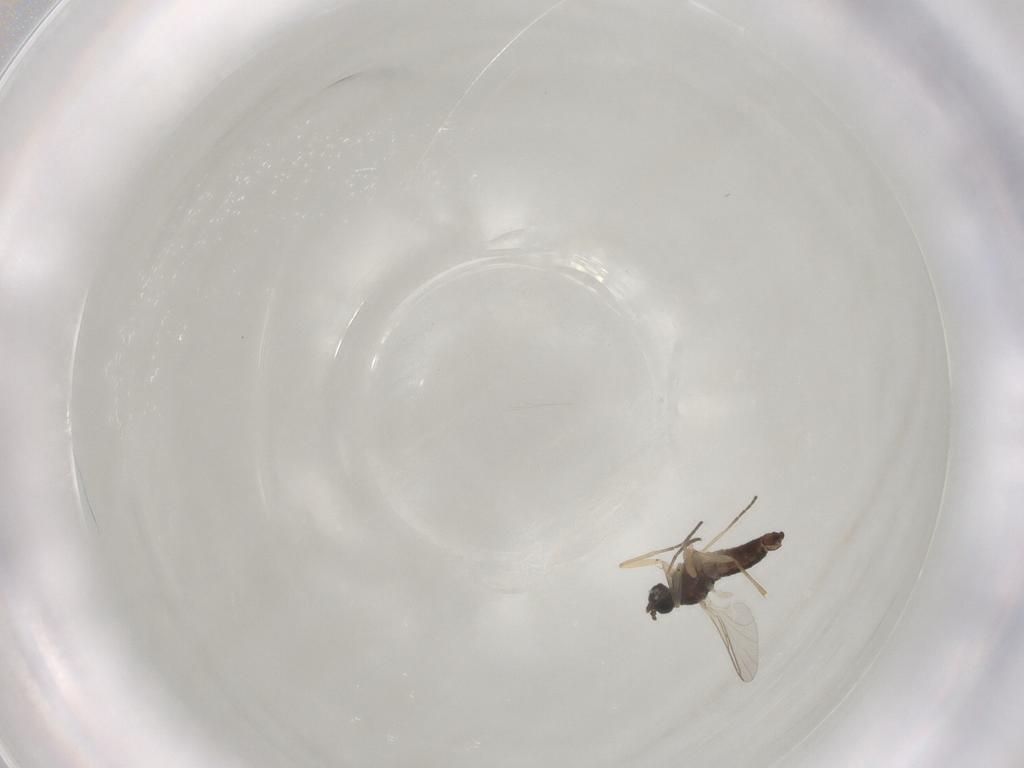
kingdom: Animalia
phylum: Arthropoda
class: Insecta
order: Diptera
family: Sciaridae
